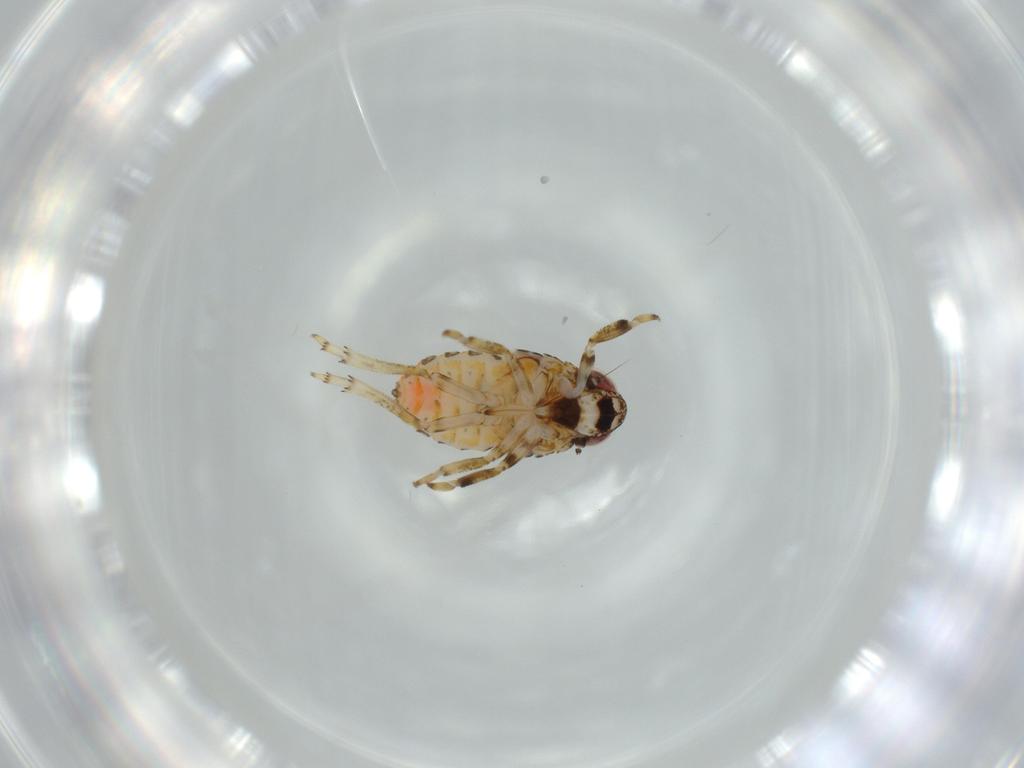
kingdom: Animalia
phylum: Arthropoda
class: Insecta
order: Hemiptera
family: Issidae
